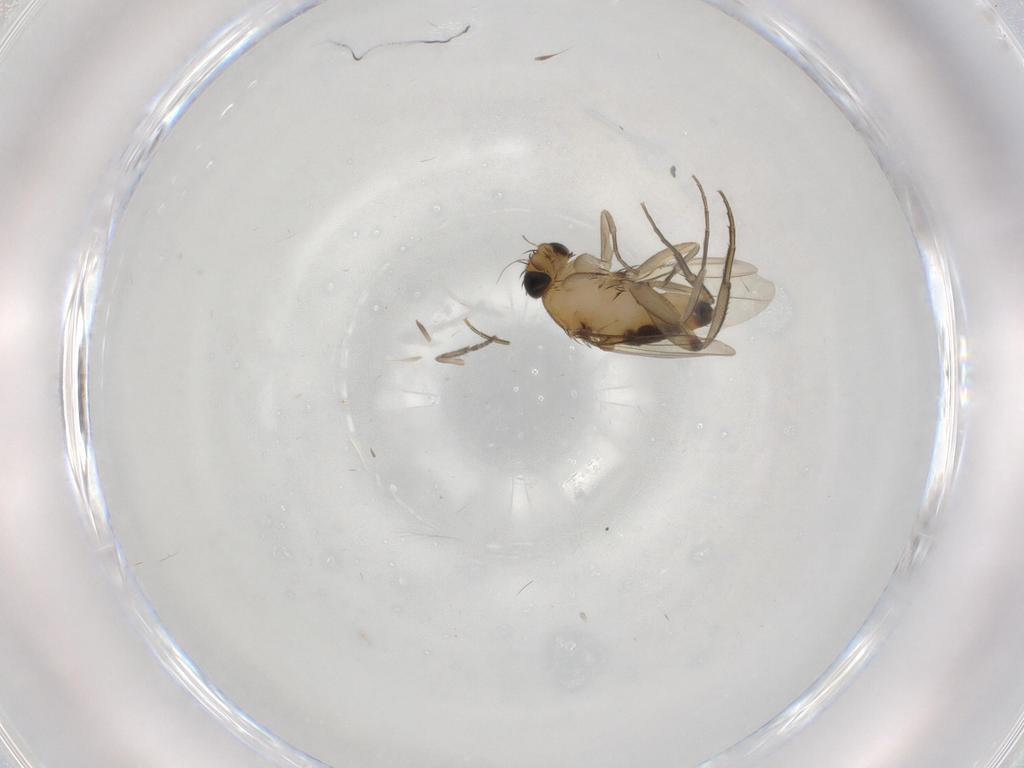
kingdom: Animalia
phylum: Arthropoda
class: Insecta
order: Diptera
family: Phoridae
